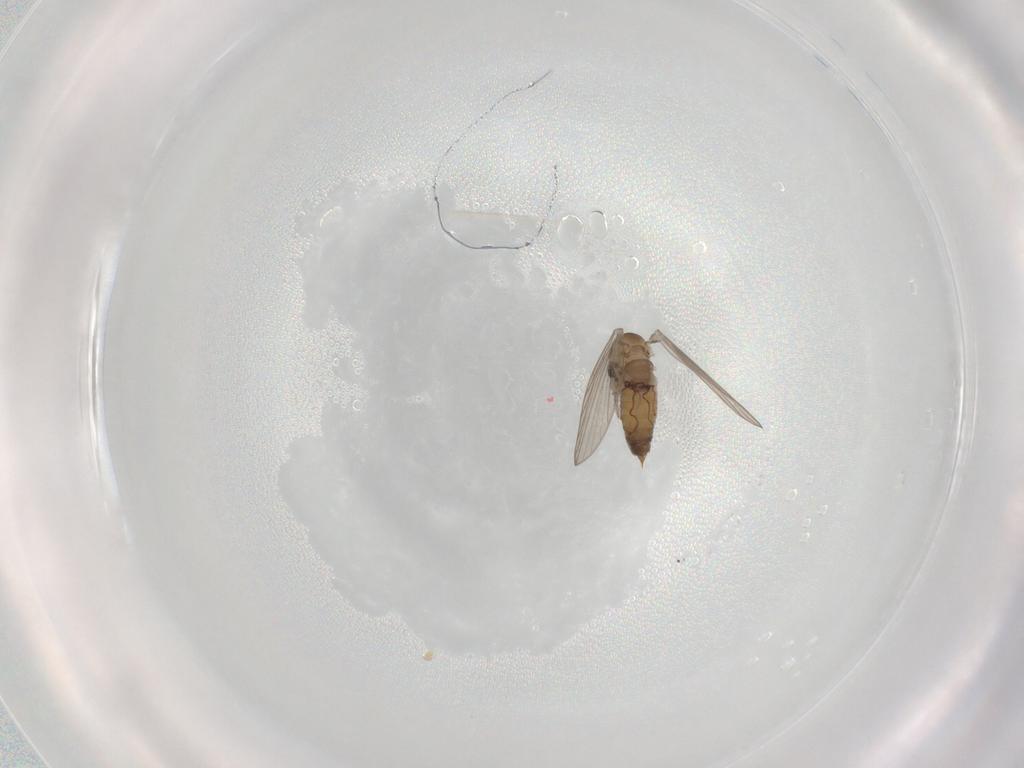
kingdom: Animalia
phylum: Arthropoda
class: Insecta
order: Diptera
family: Psychodidae
